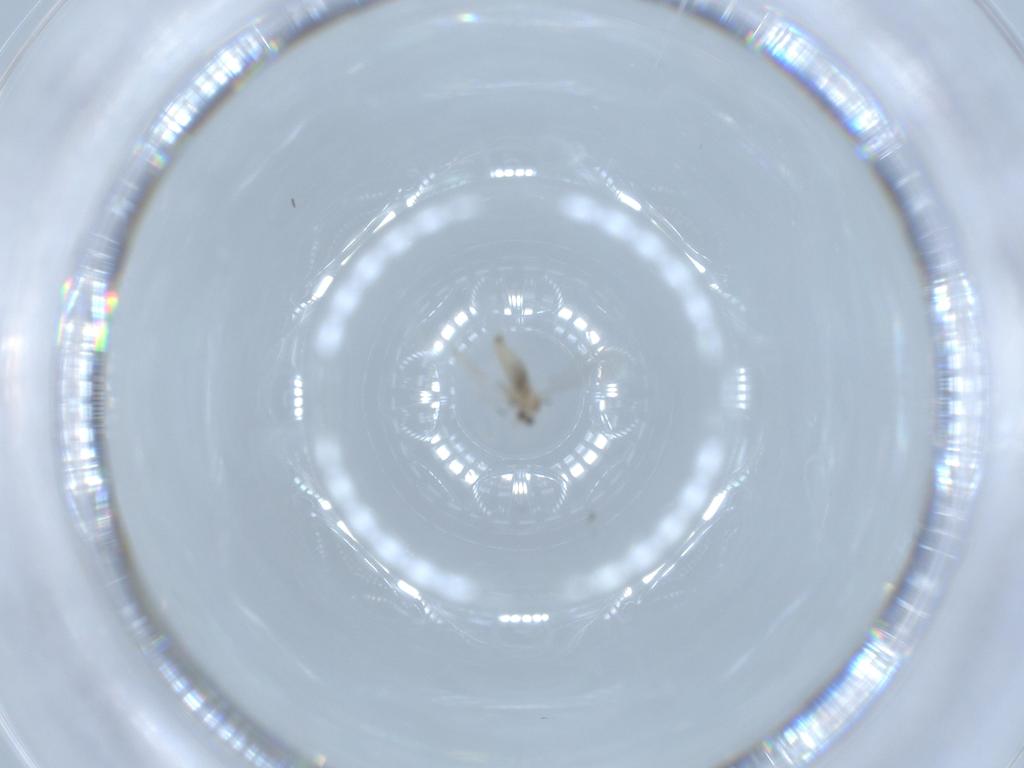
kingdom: Animalia
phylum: Arthropoda
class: Insecta
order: Diptera
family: Cecidomyiidae
